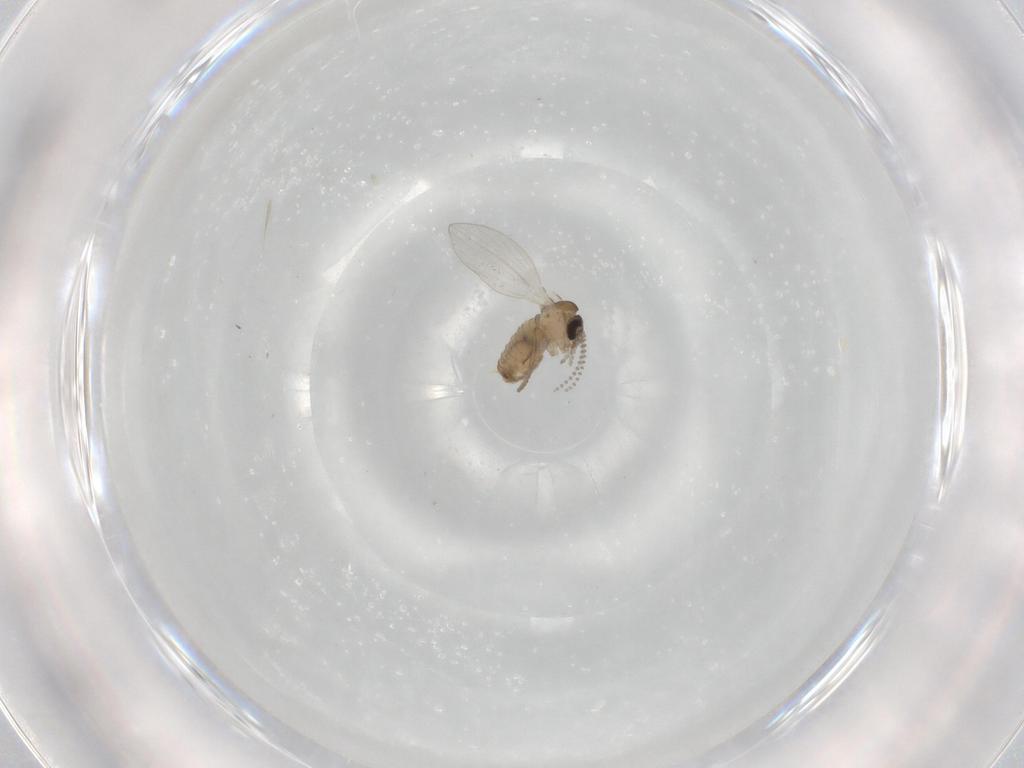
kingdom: Animalia
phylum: Arthropoda
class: Insecta
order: Diptera
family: Psychodidae
